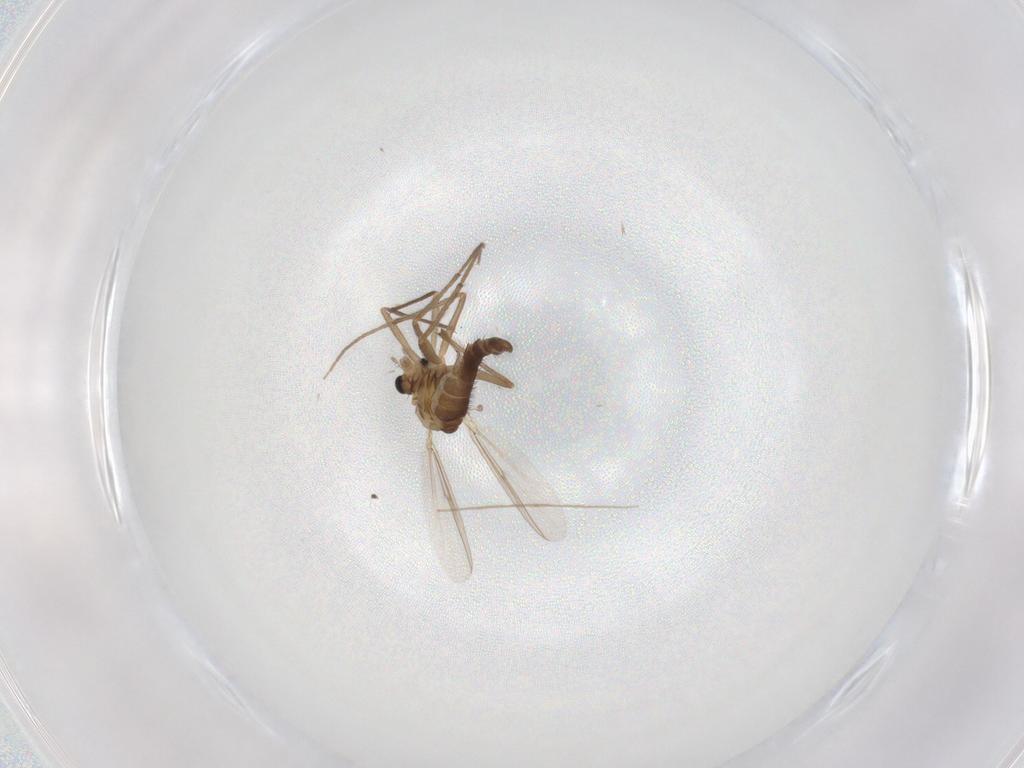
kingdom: Animalia
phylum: Arthropoda
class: Insecta
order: Diptera
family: Chironomidae
